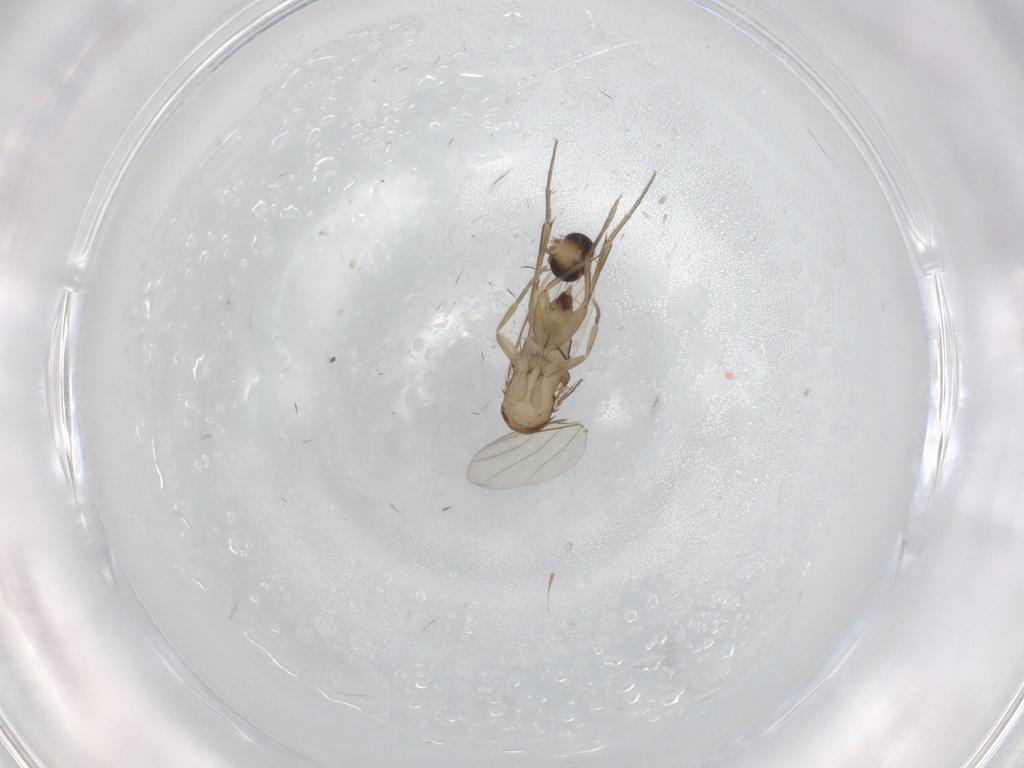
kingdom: Animalia
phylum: Arthropoda
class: Insecta
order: Diptera
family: Phoridae
